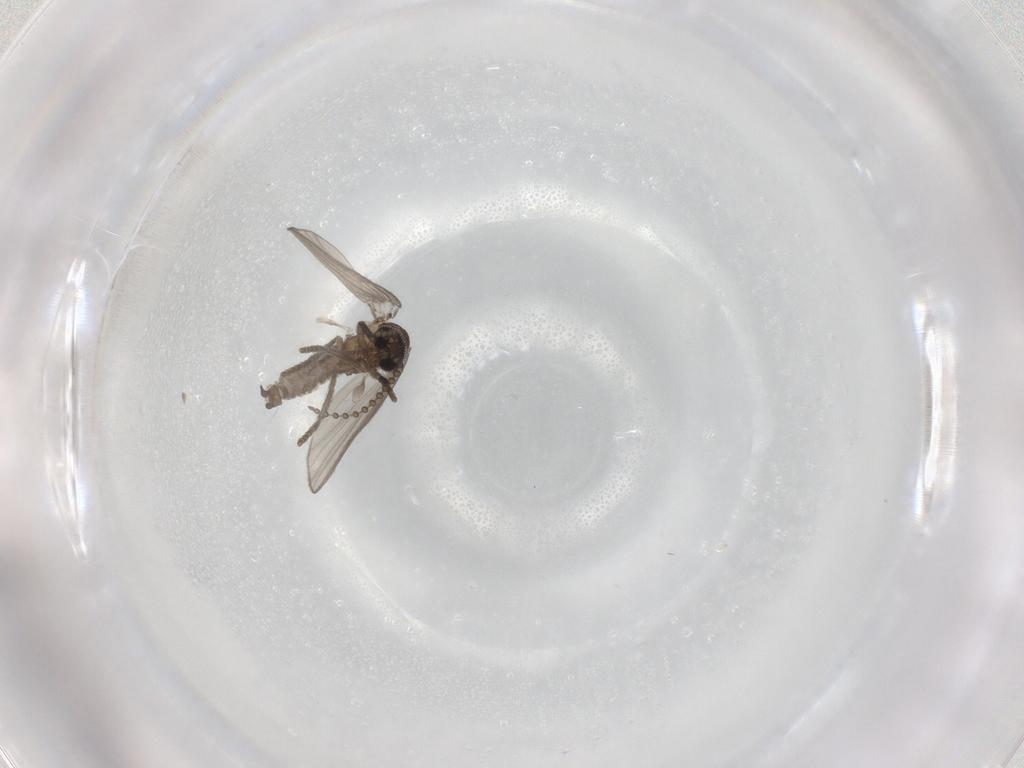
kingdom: Animalia
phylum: Arthropoda
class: Insecta
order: Diptera
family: Psychodidae
